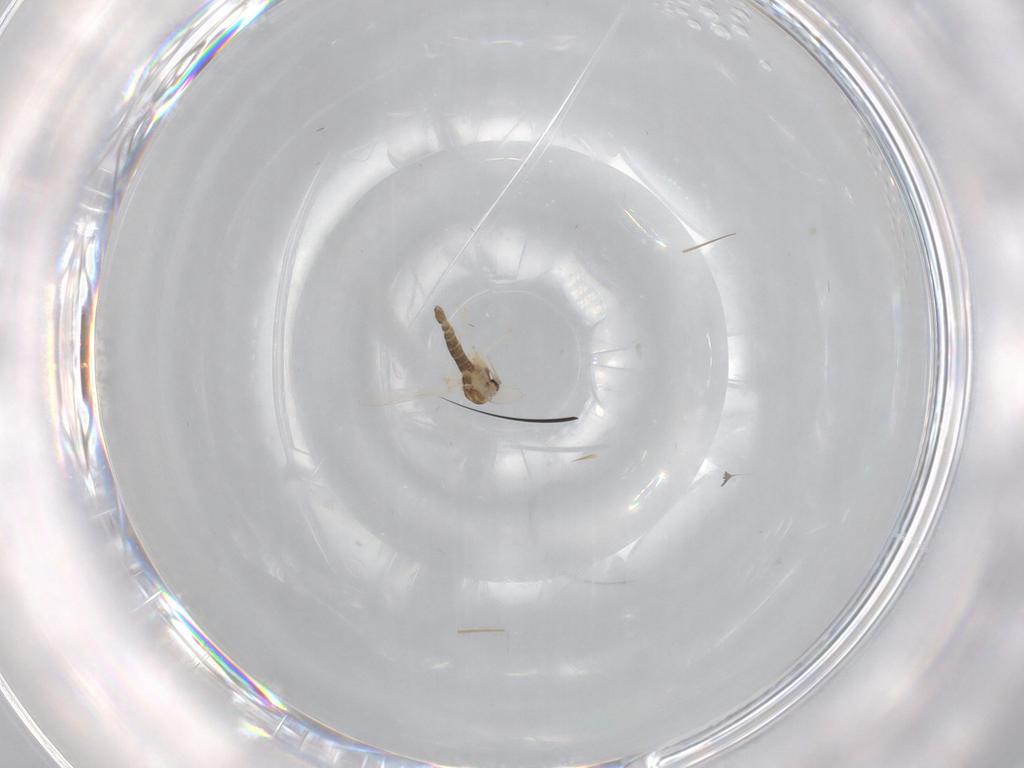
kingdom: Animalia
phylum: Arthropoda
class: Insecta
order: Diptera
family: Chironomidae
